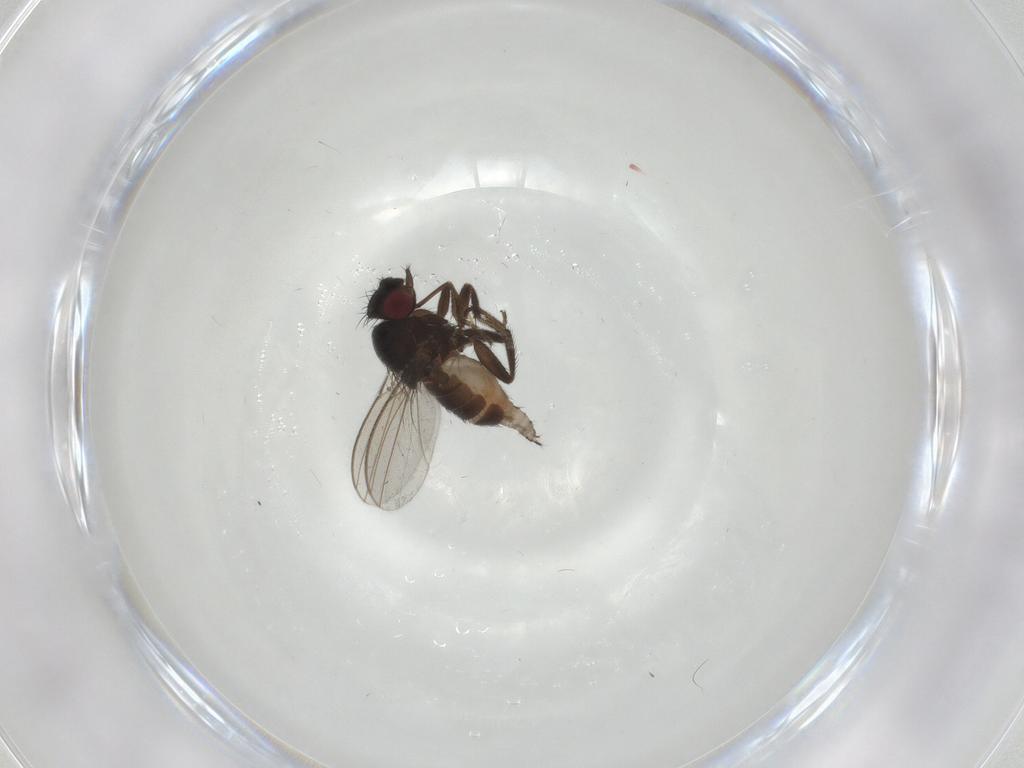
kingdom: Animalia
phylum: Arthropoda
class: Insecta
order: Diptera
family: Milichiidae
